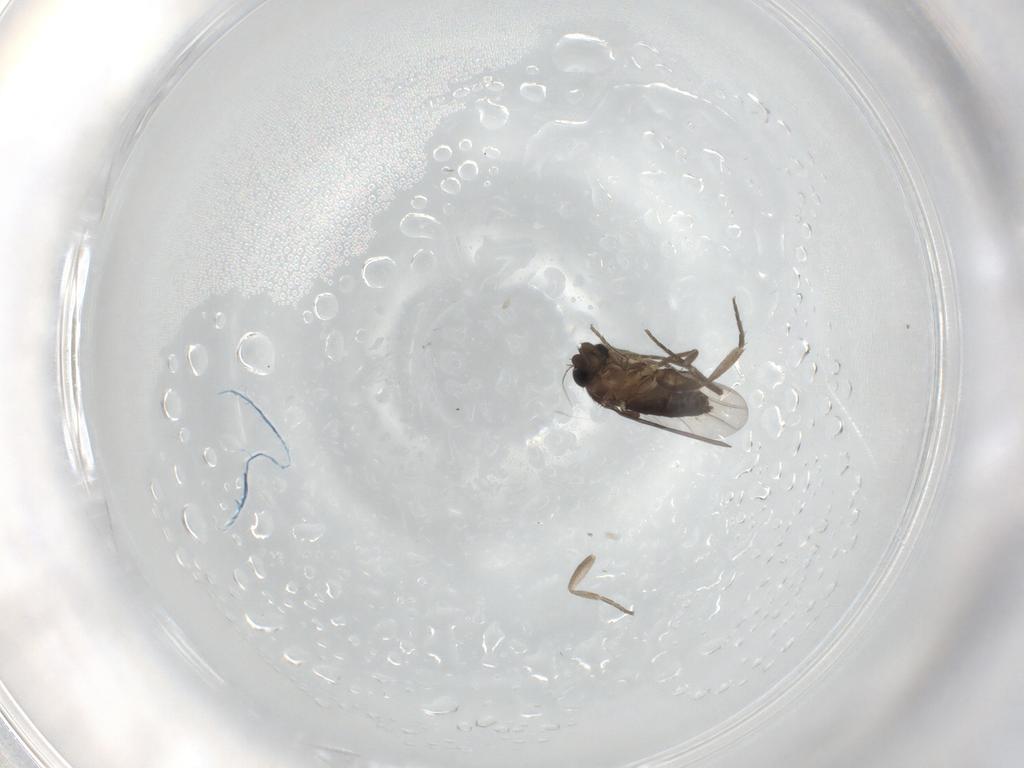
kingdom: Animalia
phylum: Arthropoda
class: Insecta
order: Diptera
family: Phoridae
